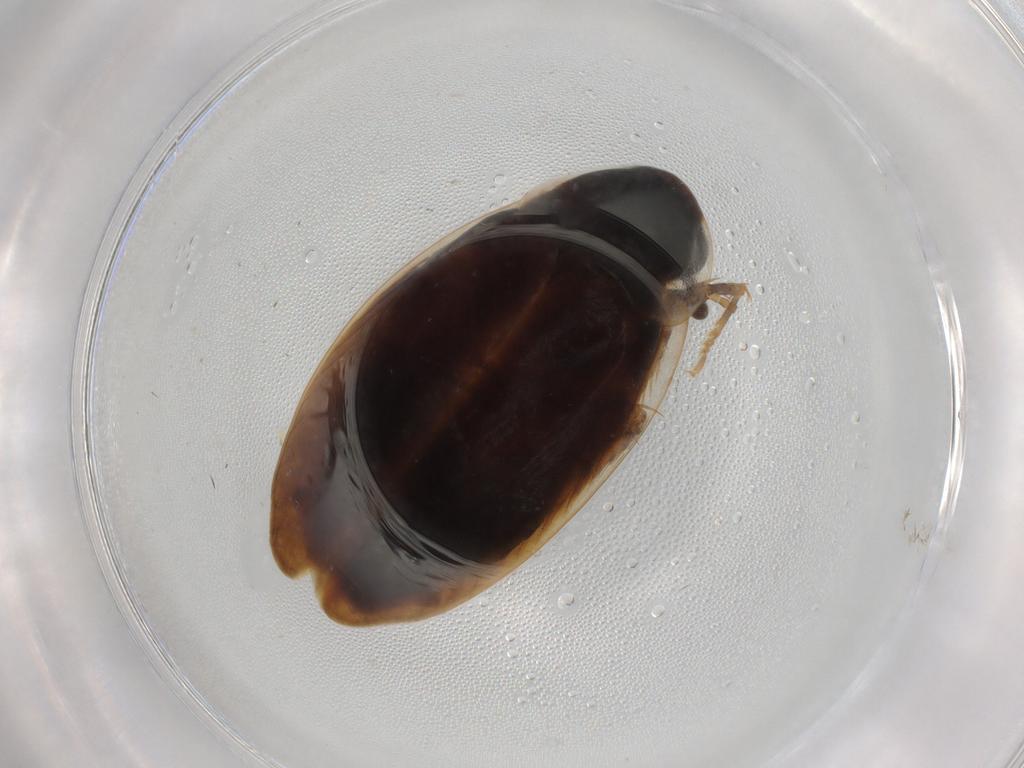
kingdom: Animalia
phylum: Arthropoda
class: Insecta
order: Blattodea
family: Ectobiidae
